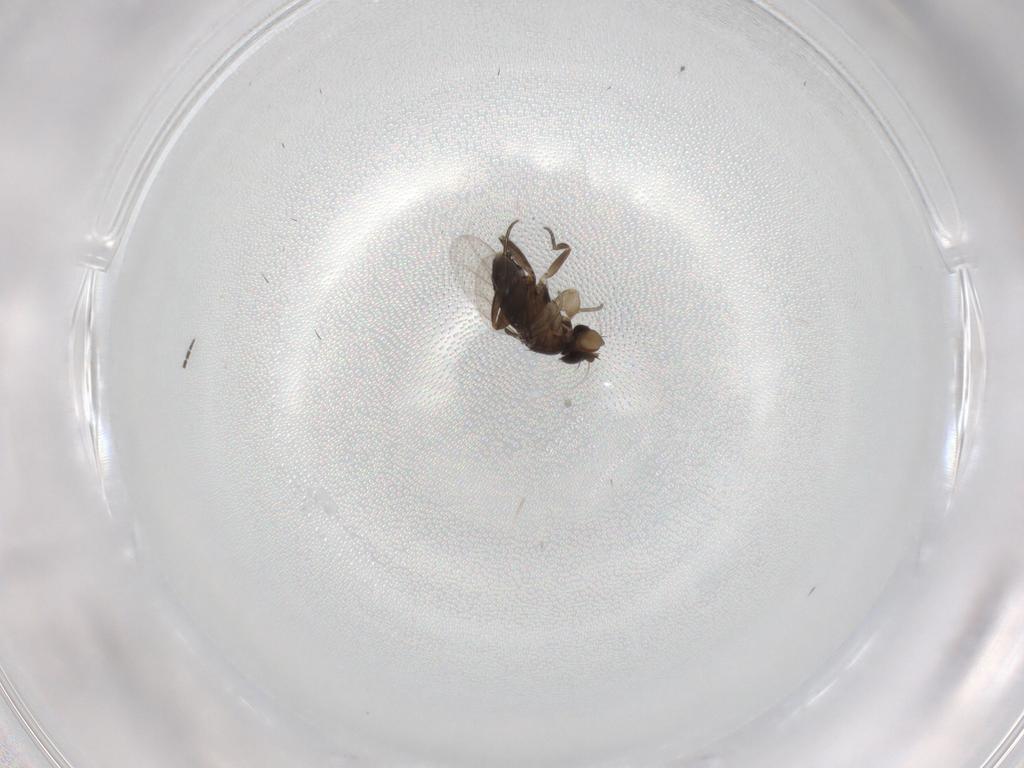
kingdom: Animalia
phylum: Arthropoda
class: Insecta
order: Diptera
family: Phoridae
